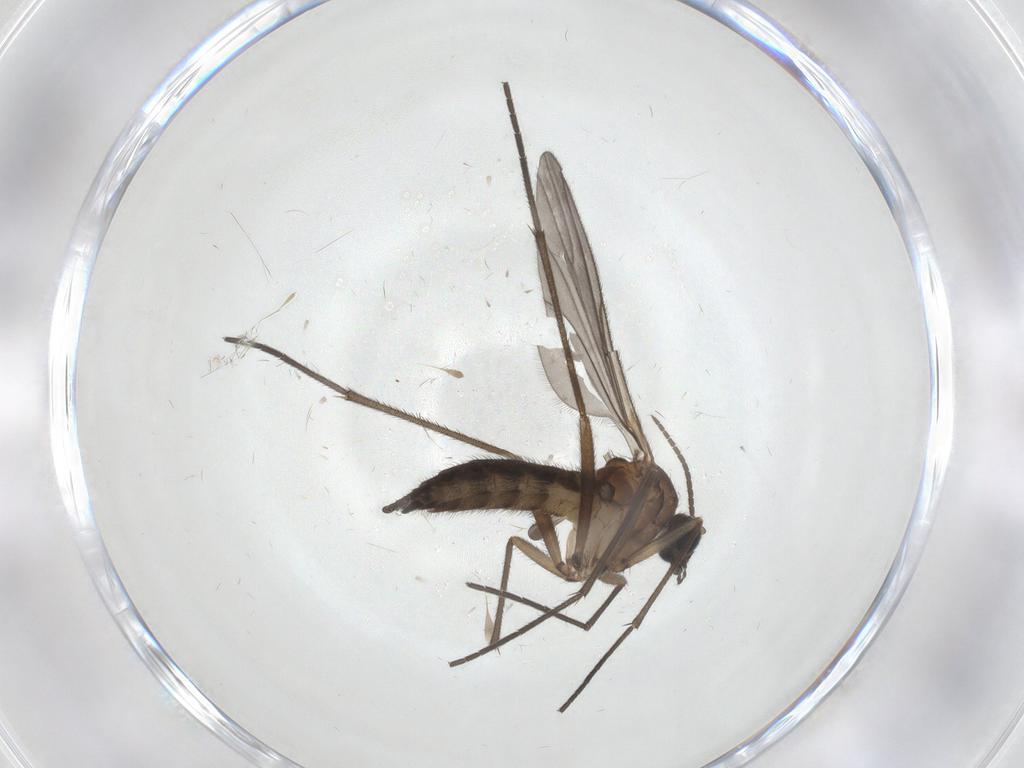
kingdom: Animalia
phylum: Arthropoda
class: Insecta
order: Diptera
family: Sciaridae
